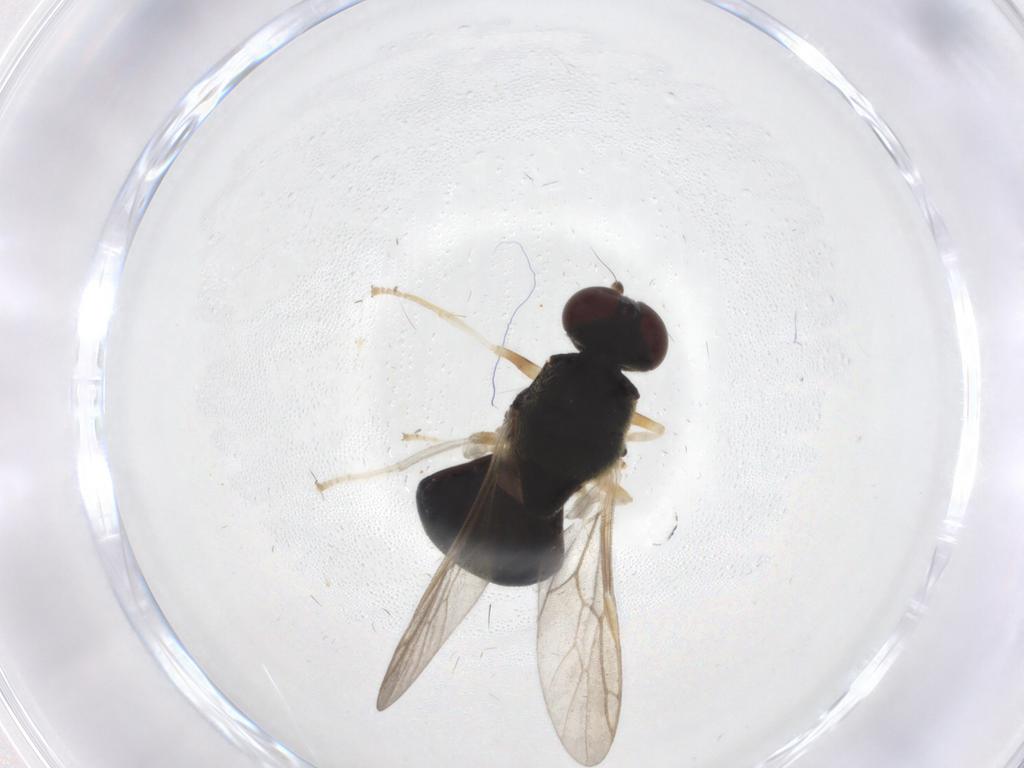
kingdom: Animalia
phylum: Arthropoda
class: Insecta
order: Diptera
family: Stratiomyidae
